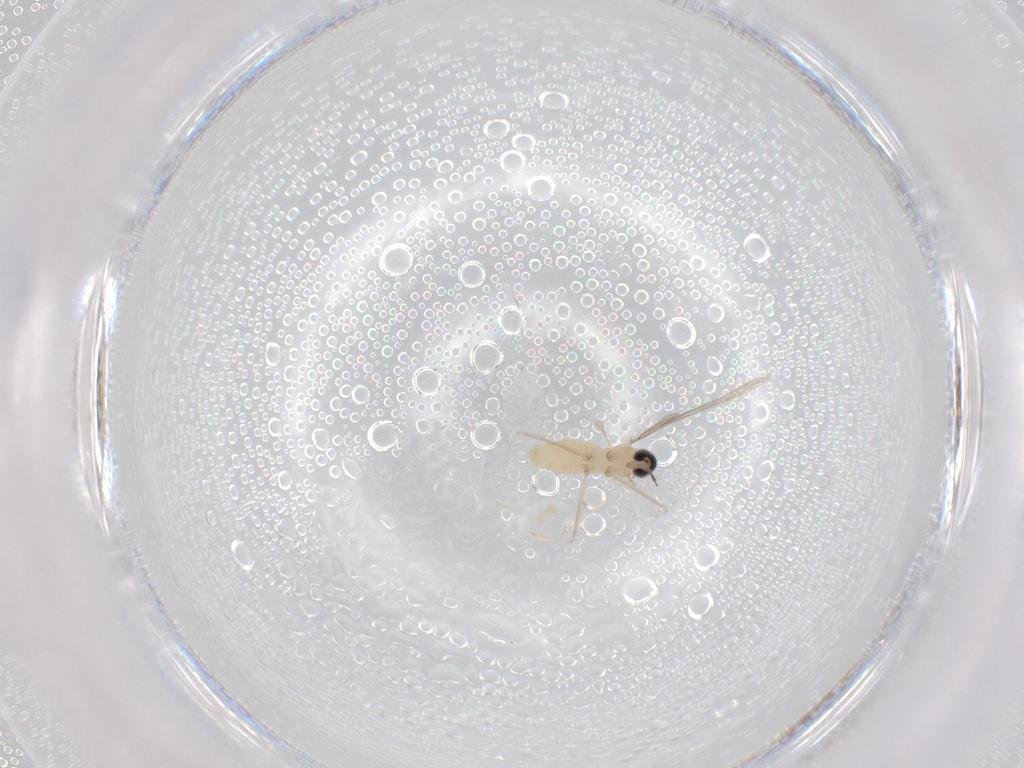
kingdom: Animalia
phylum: Arthropoda
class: Insecta
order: Diptera
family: Cecidomyiidae
